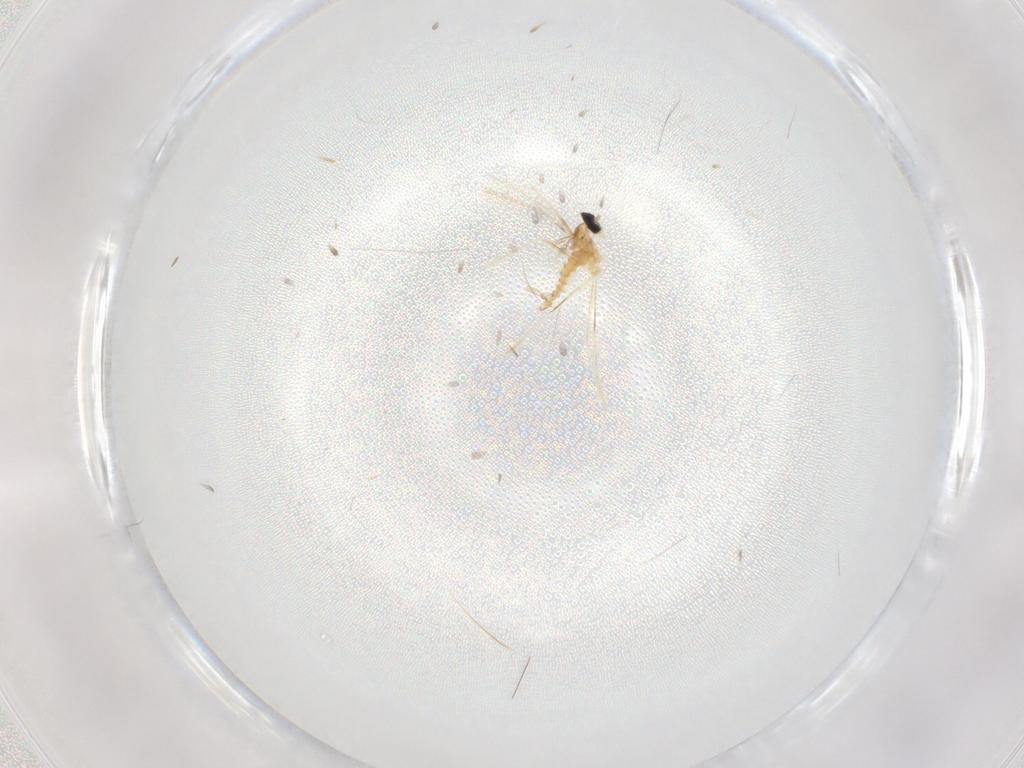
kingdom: Animalia
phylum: Arthropoda
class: Insecta
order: Diptera
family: Cecidomyiidae
